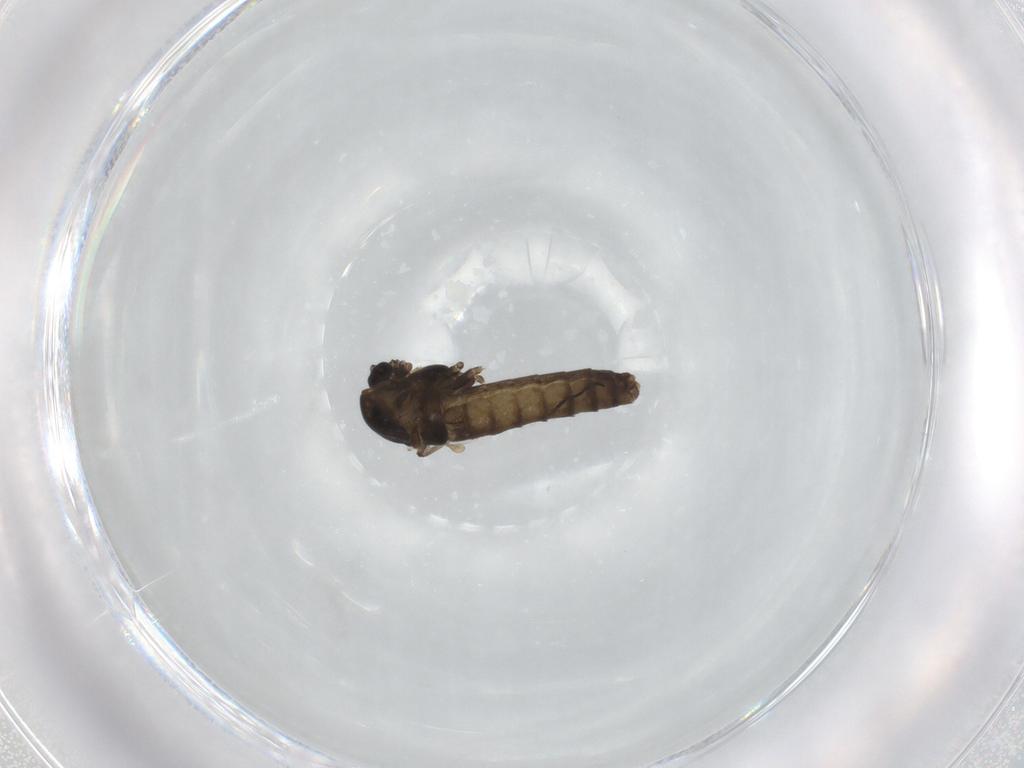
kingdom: Animalia
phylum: Arthropoda
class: Insecta
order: Diptera
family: Chironomidae
